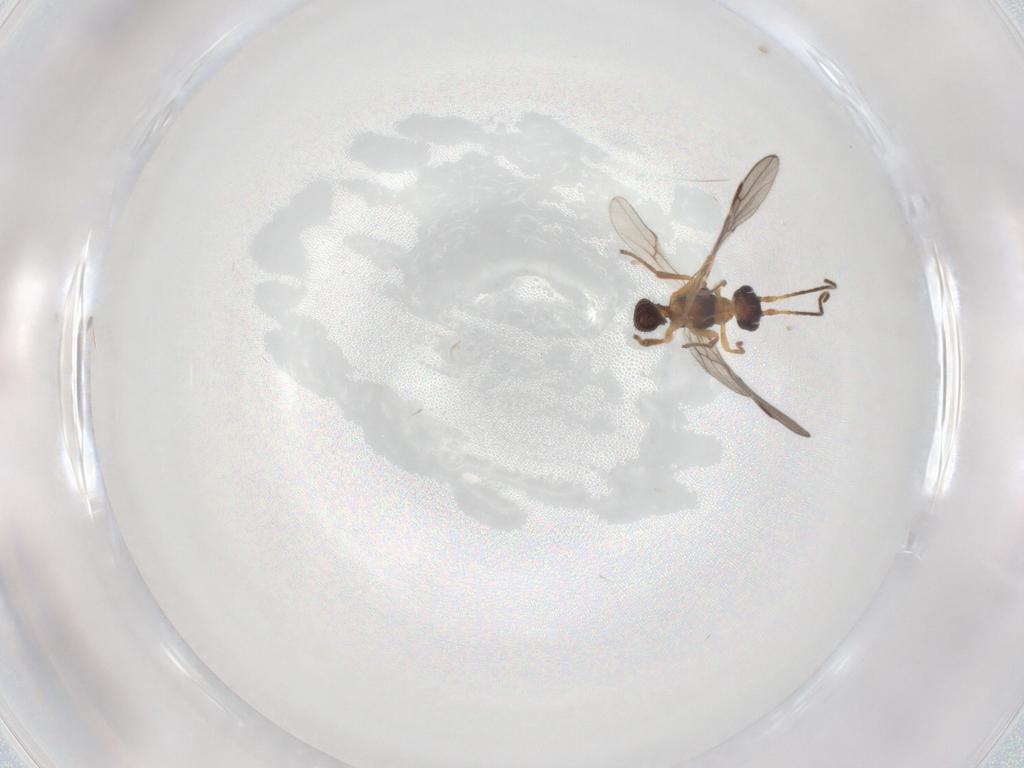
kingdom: Animalia
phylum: Arthropoda
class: Insecta
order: Hymenoptera
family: Braconidae
